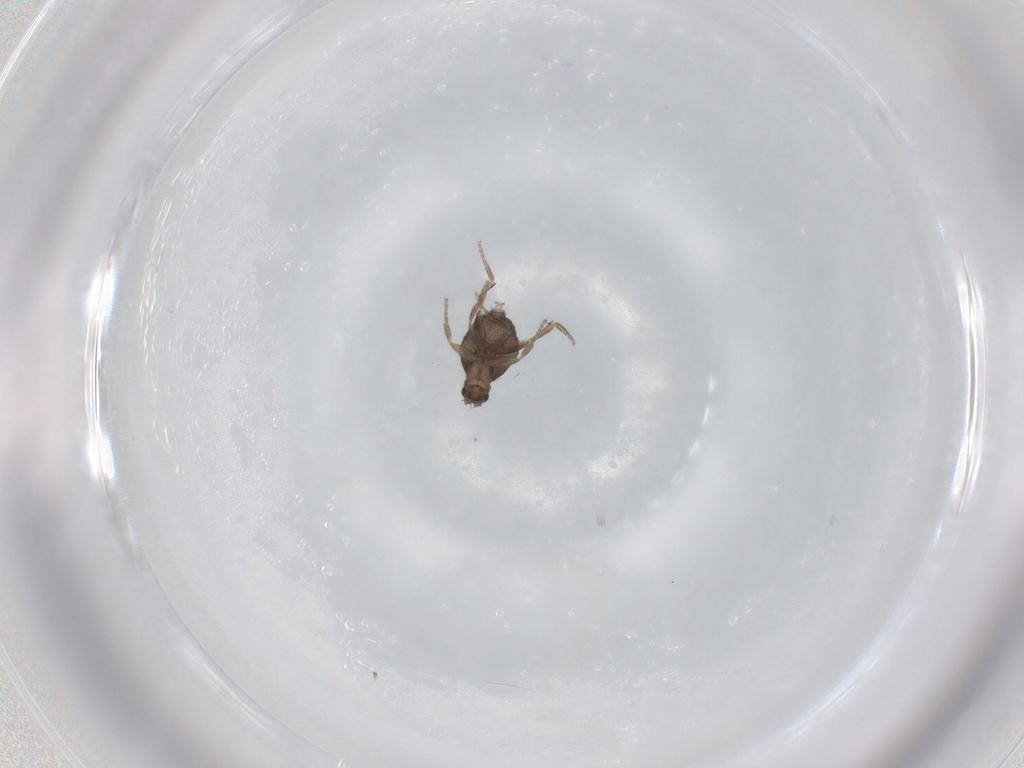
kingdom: Animalia
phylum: Arthropoda
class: Insecta
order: Diptera
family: Phoridae
